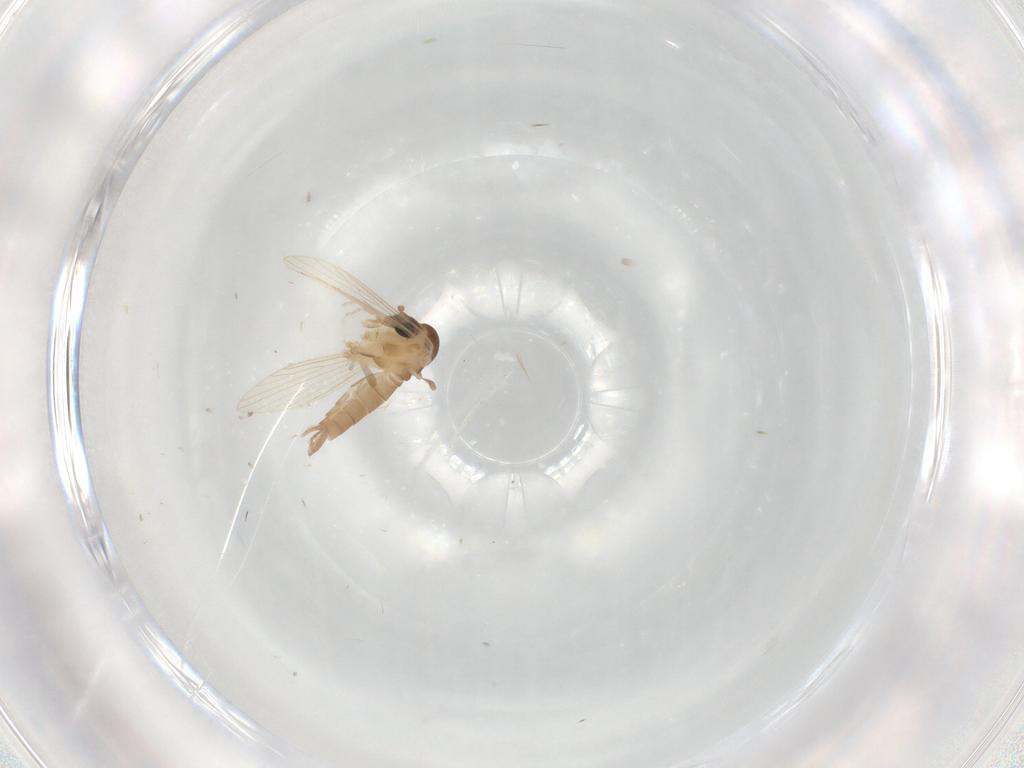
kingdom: Animalia
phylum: Arthropoda
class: Insecta
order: Diptera
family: Psychodidae
